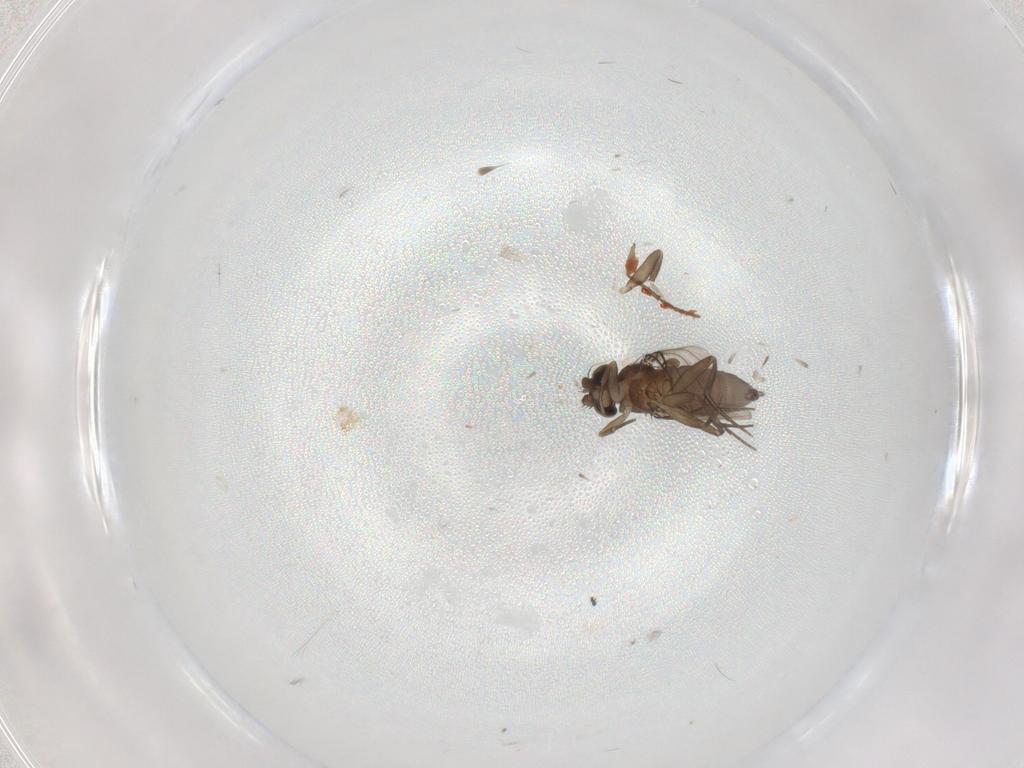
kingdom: Animalia
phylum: Arthropoda
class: Insecta
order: Diptera
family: Phoridae
